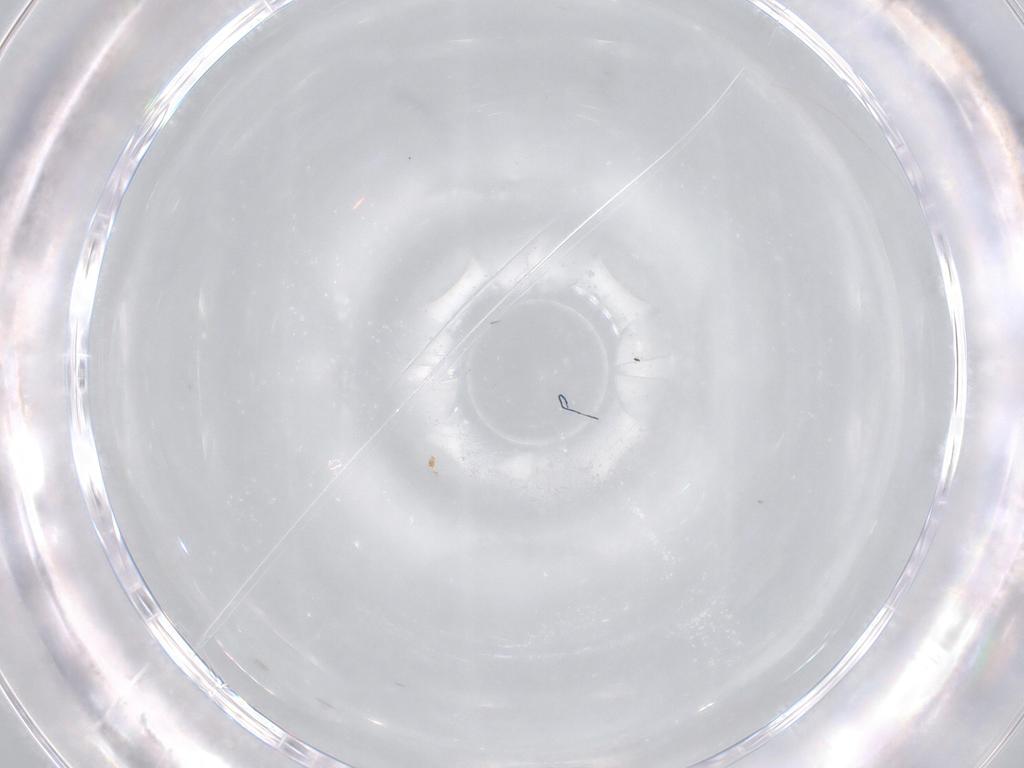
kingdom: Animalia
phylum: Arthropoda
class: Insecta
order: Diptera
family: Cecidomyiidae
